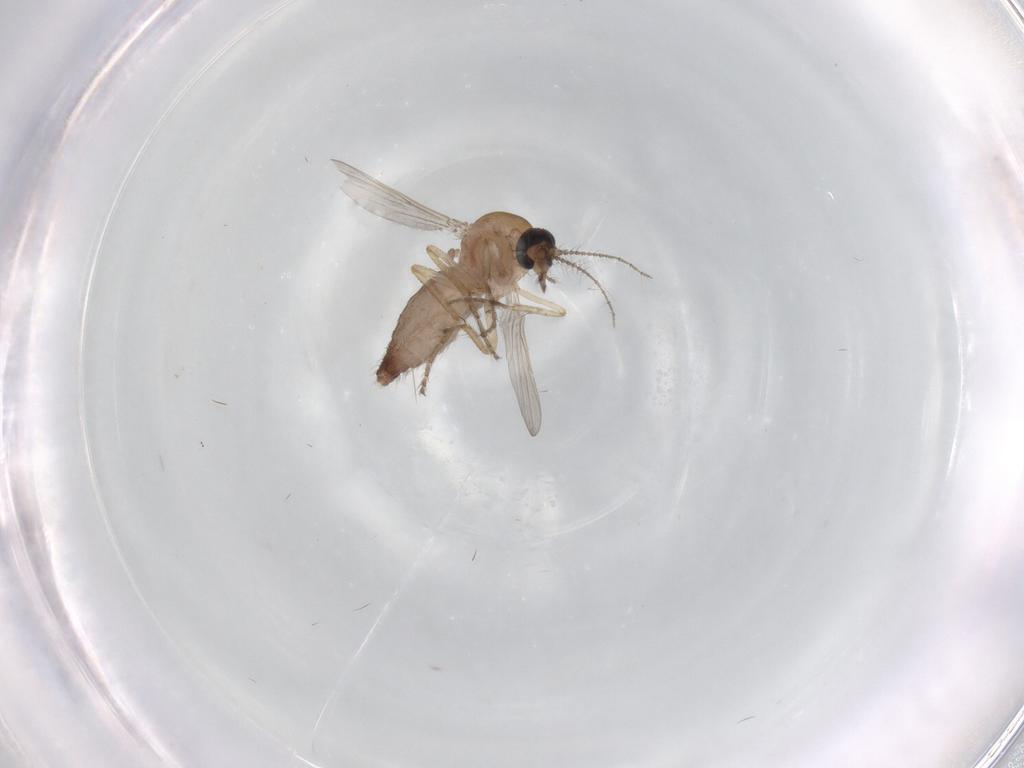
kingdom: Animalia
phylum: Arthropoda
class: Insecta
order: Diptera
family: Ceratopogonidae
